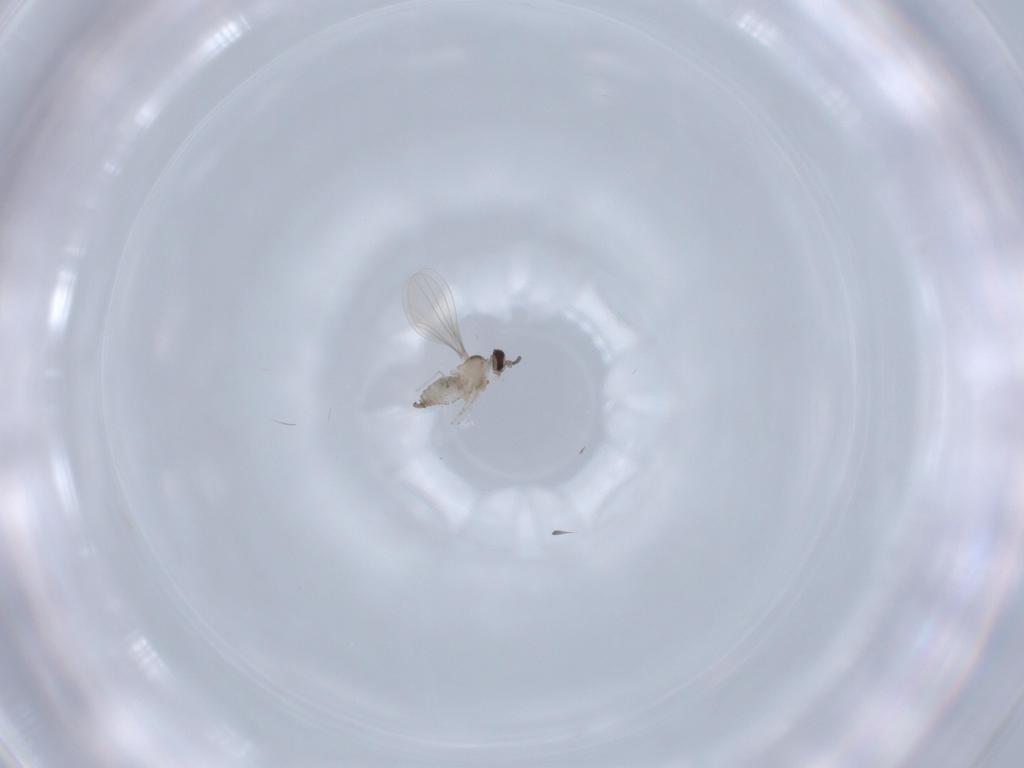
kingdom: Animalia
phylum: Arthropoda
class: Insecta
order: Diptera
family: Cecidomyiidae
